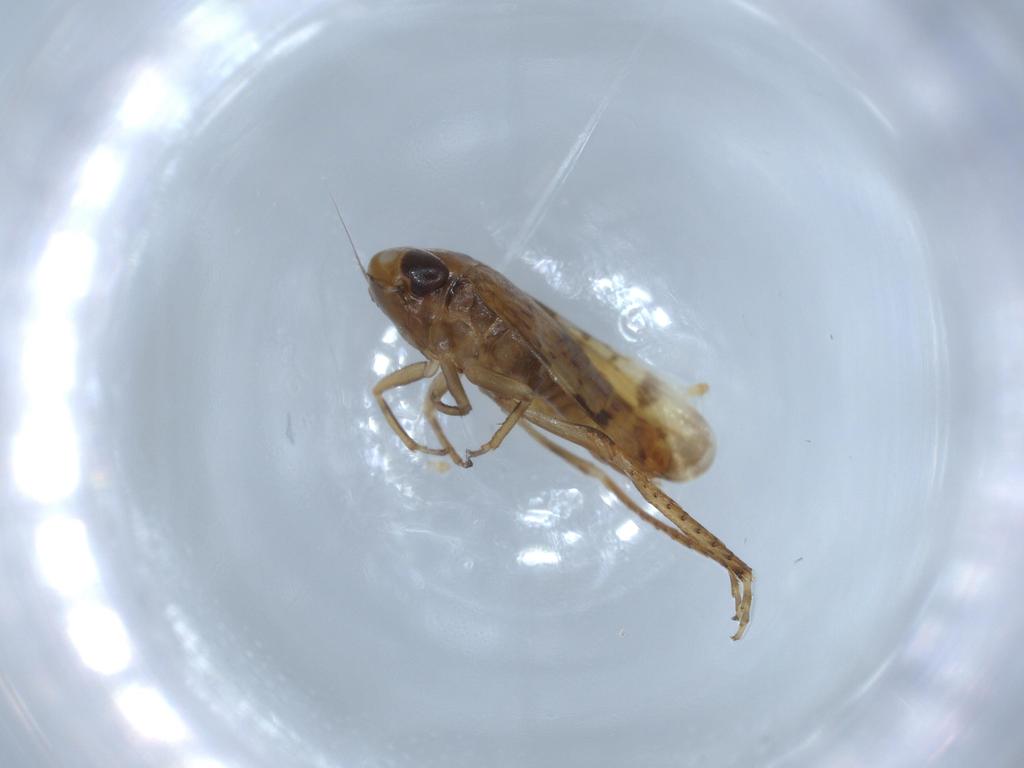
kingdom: Animalia
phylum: Arthropoda
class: Insecta
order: Hemiptera
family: Cicadellidae
